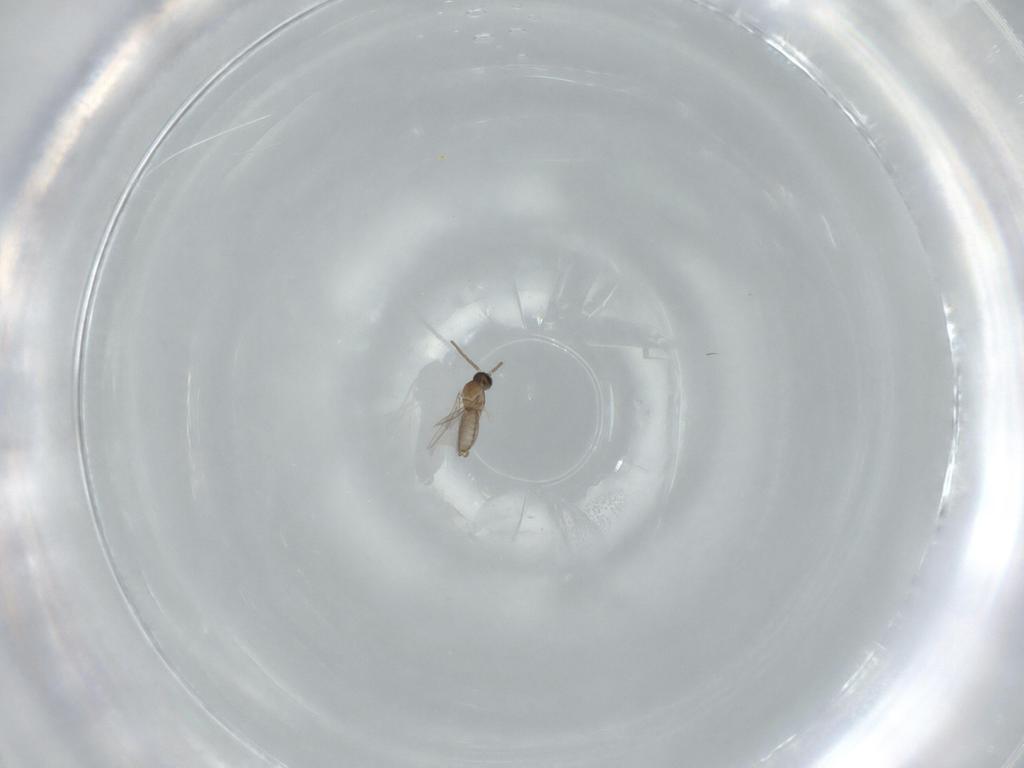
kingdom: Animalia
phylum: Arthropoda
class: Insecta
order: Diptera
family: Cecidomyiidae
